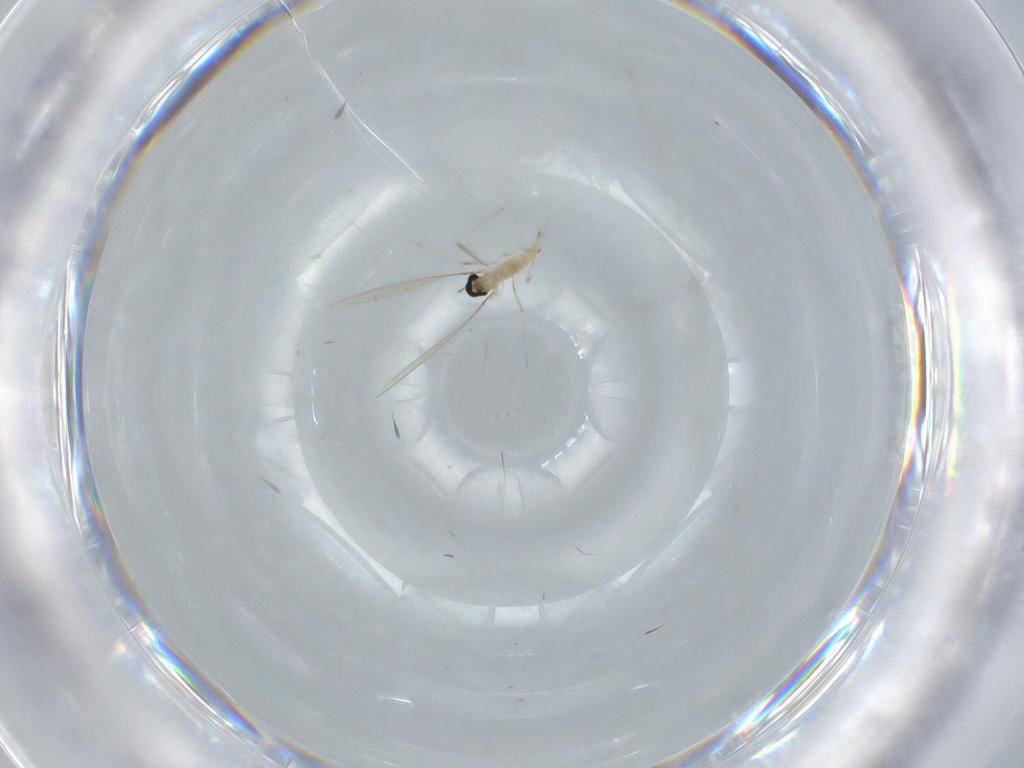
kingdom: Animalia
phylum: Arthropoda
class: Insecta
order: Diptera
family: Cecidomyiidae
